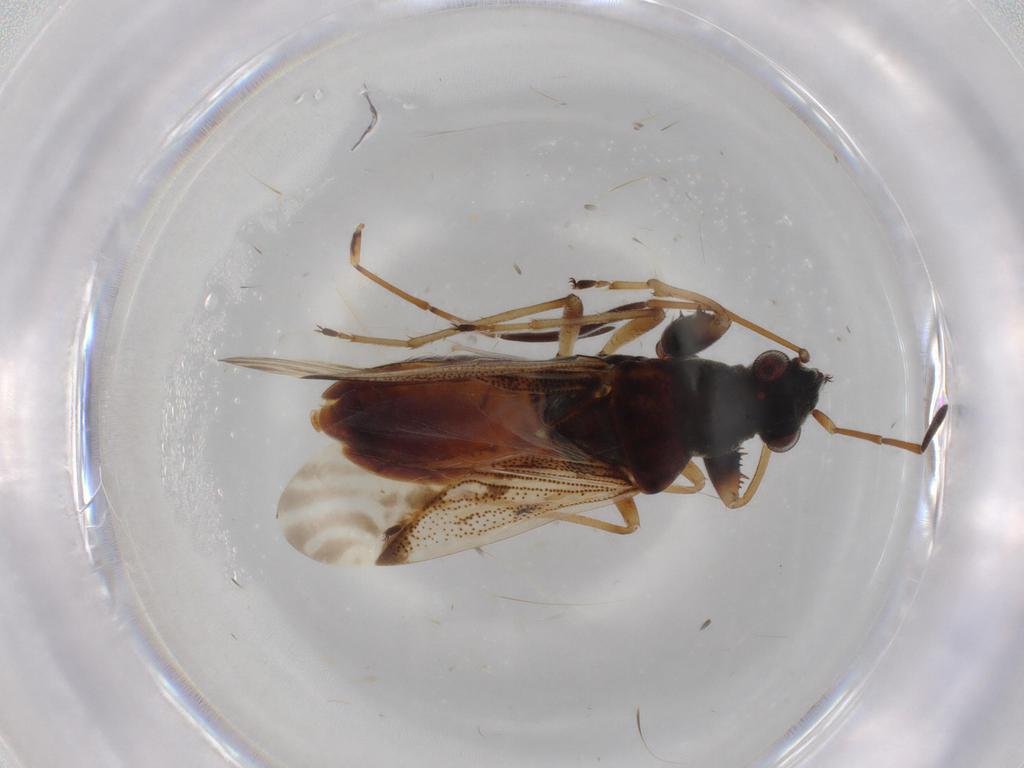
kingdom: Animalia
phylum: Arthropoda
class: Insecta
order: Hemiptera
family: Rhyparochromidae
